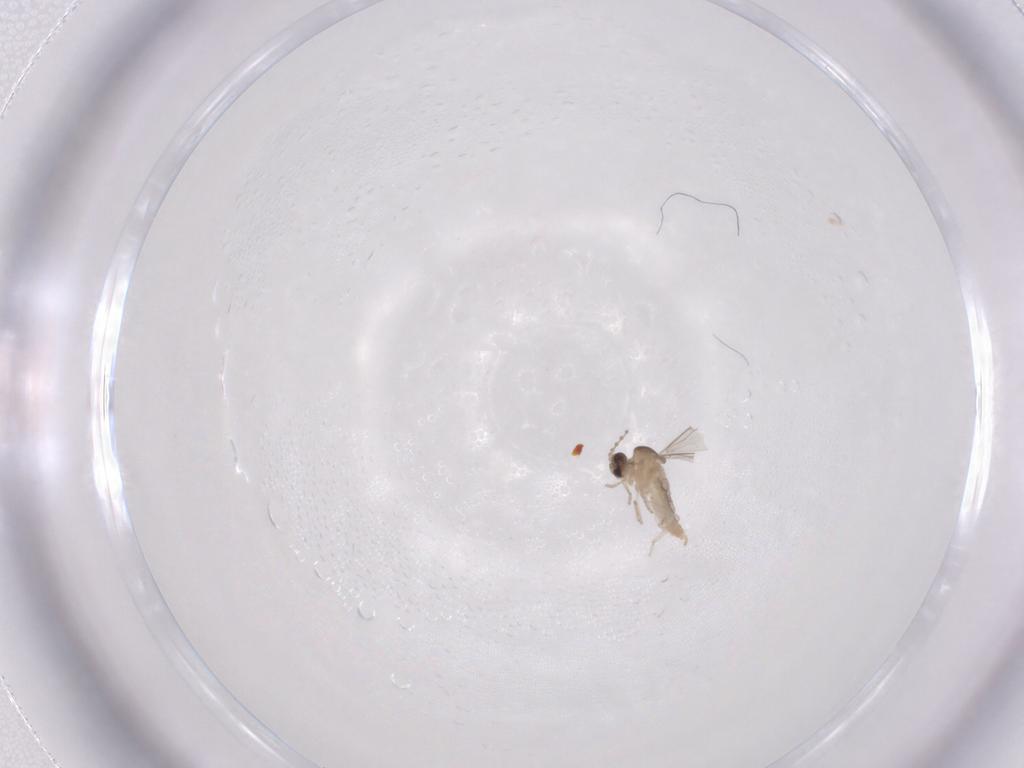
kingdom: Animalia
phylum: Arthropoda
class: Insecta
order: Diptera
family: Cecidomyiidae
